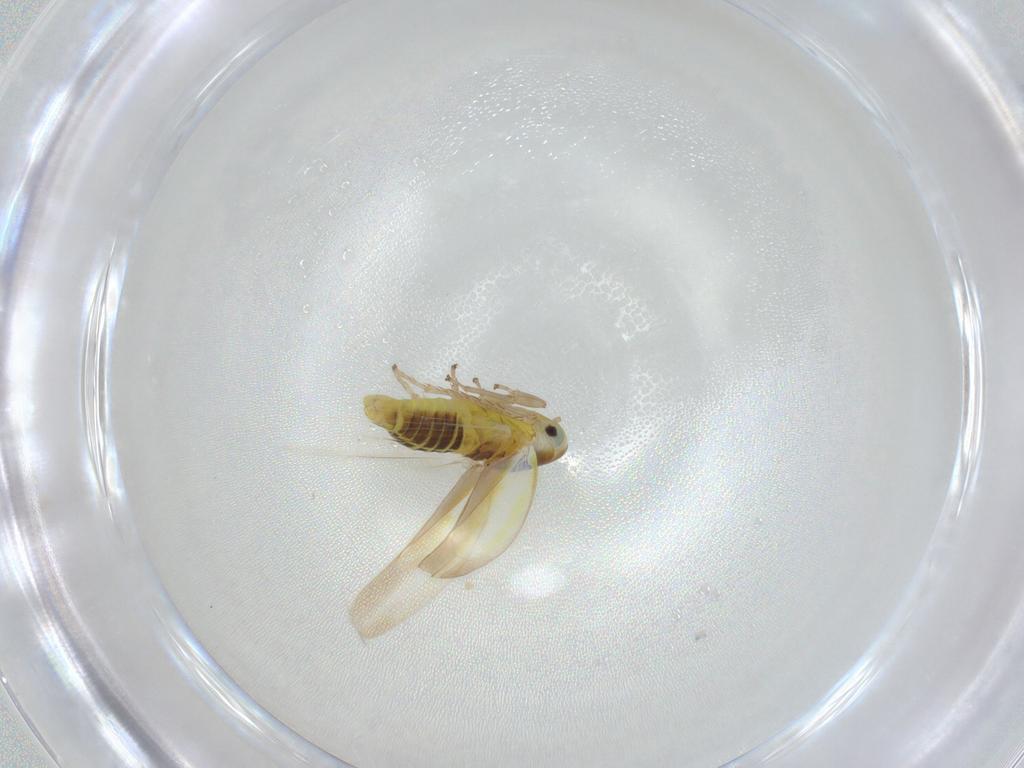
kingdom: Animalia
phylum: Arthropoda
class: Insecta
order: Hemiptera
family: Cicadellidae
